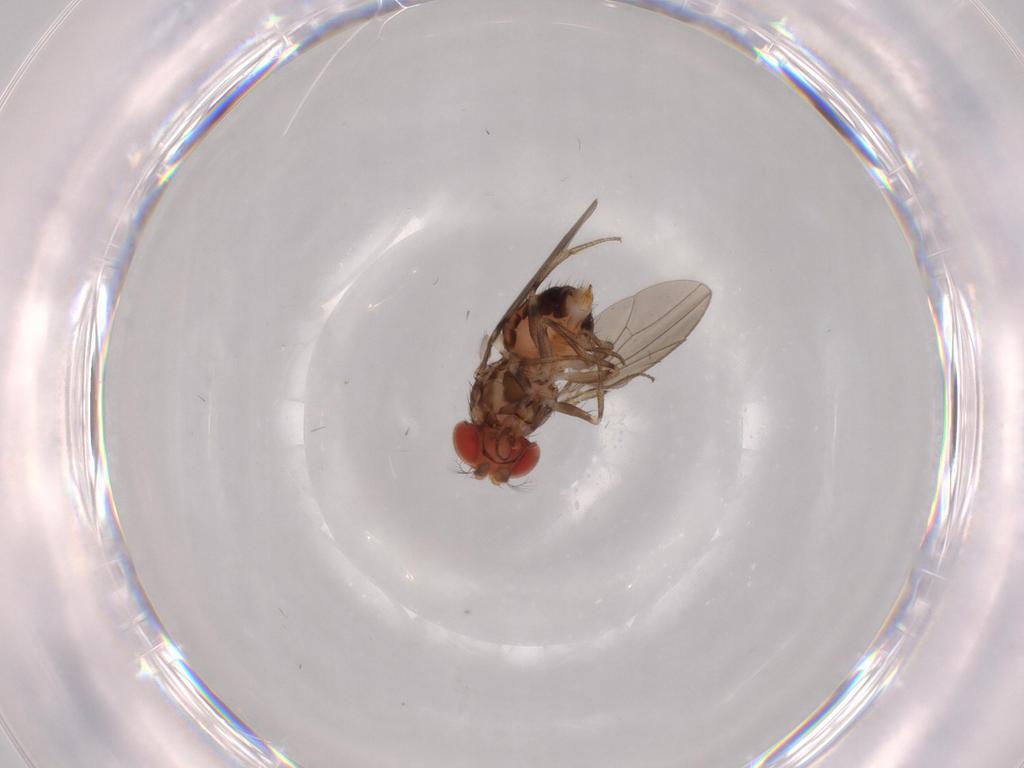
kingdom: Animalia
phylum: Arthropoda
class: Insecta
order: Diptera
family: Drosophilidae
